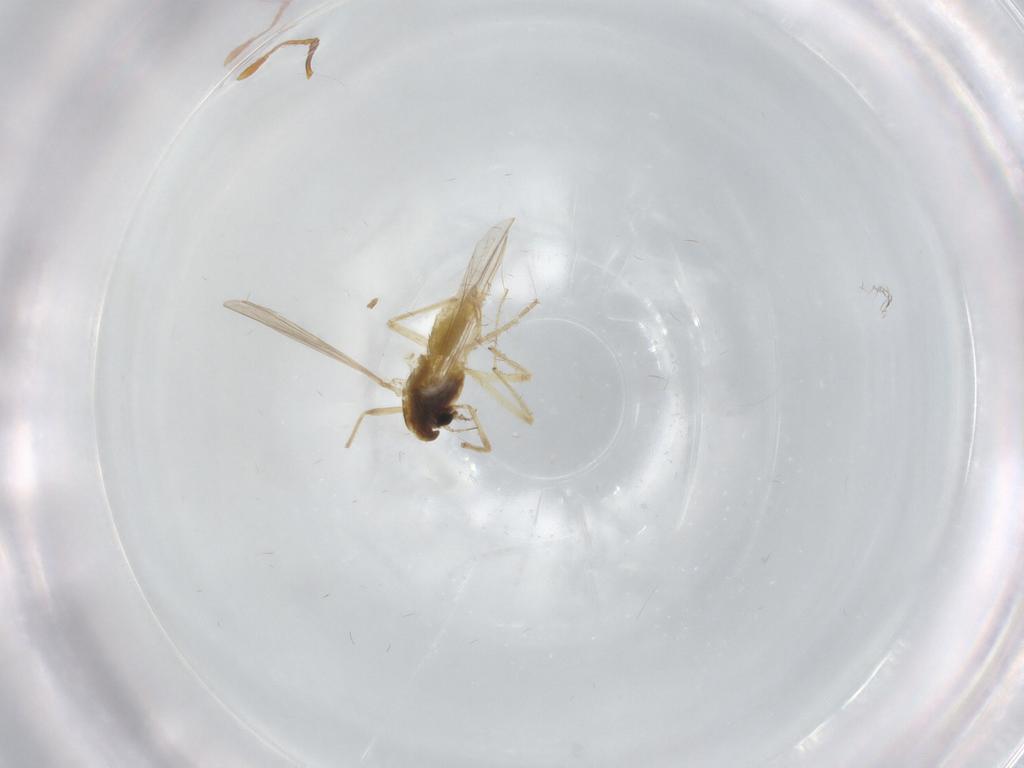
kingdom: Animalia
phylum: Arthropoda
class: Insecta
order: Diptera
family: Chironomidae
